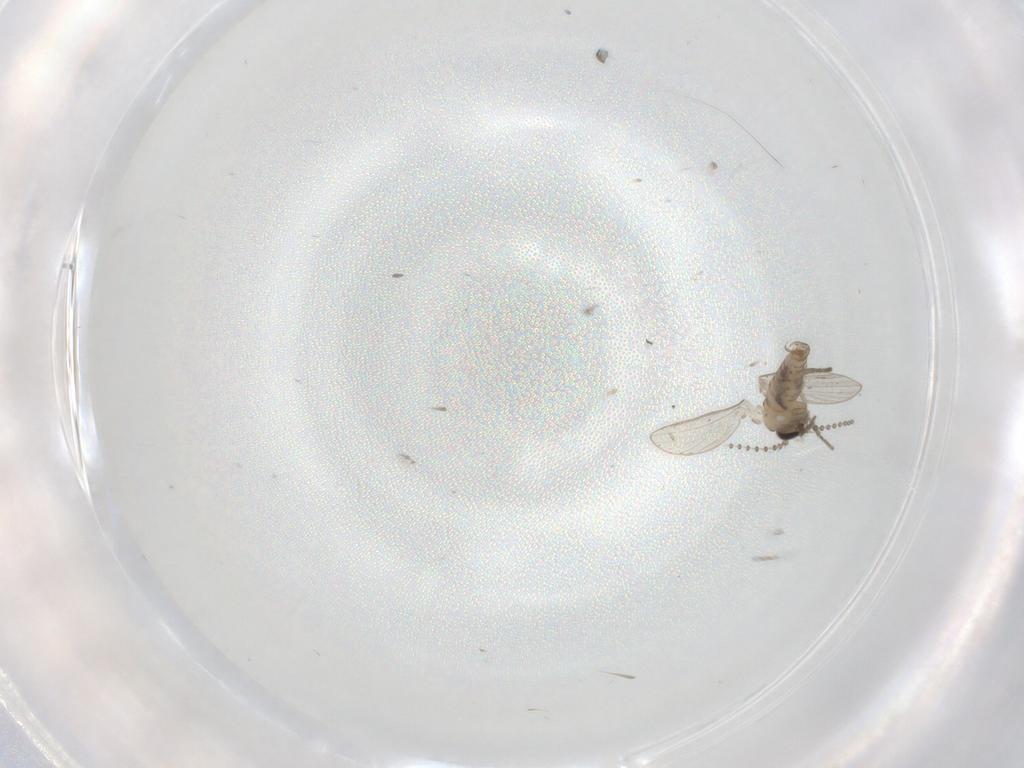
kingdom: Animalia
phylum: Arthropoda
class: Insecta
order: Diptera
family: Psychodidae
